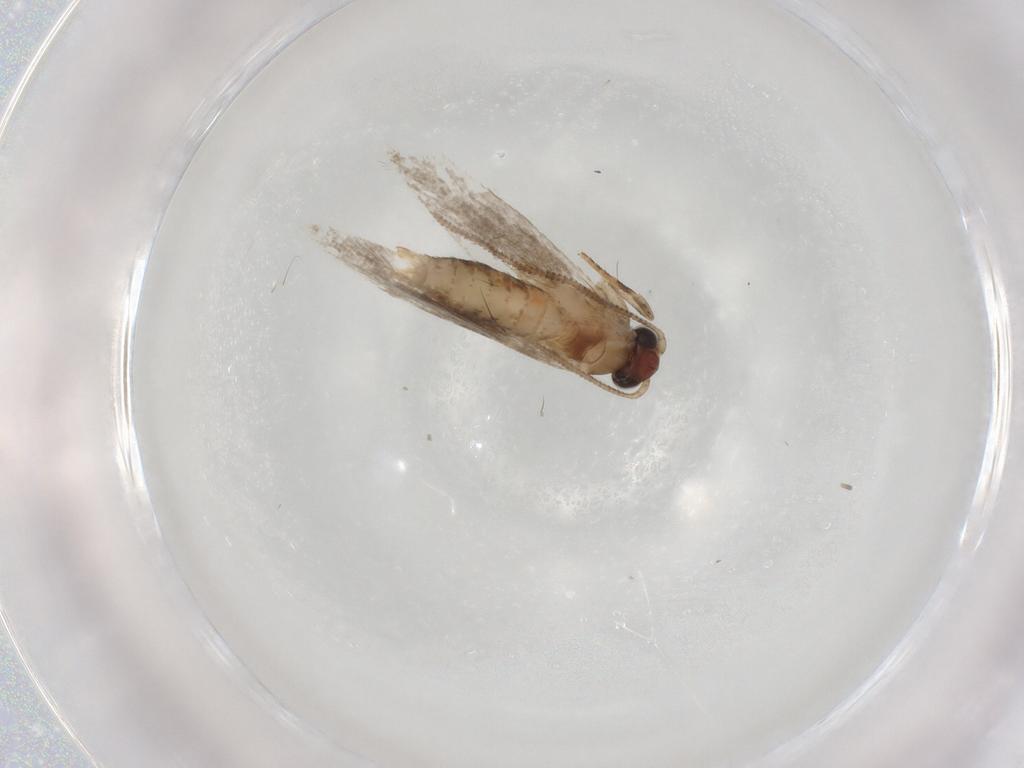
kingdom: Animalia
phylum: Arthropoda
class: Insecta
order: Lepidoptera
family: Tineidae
